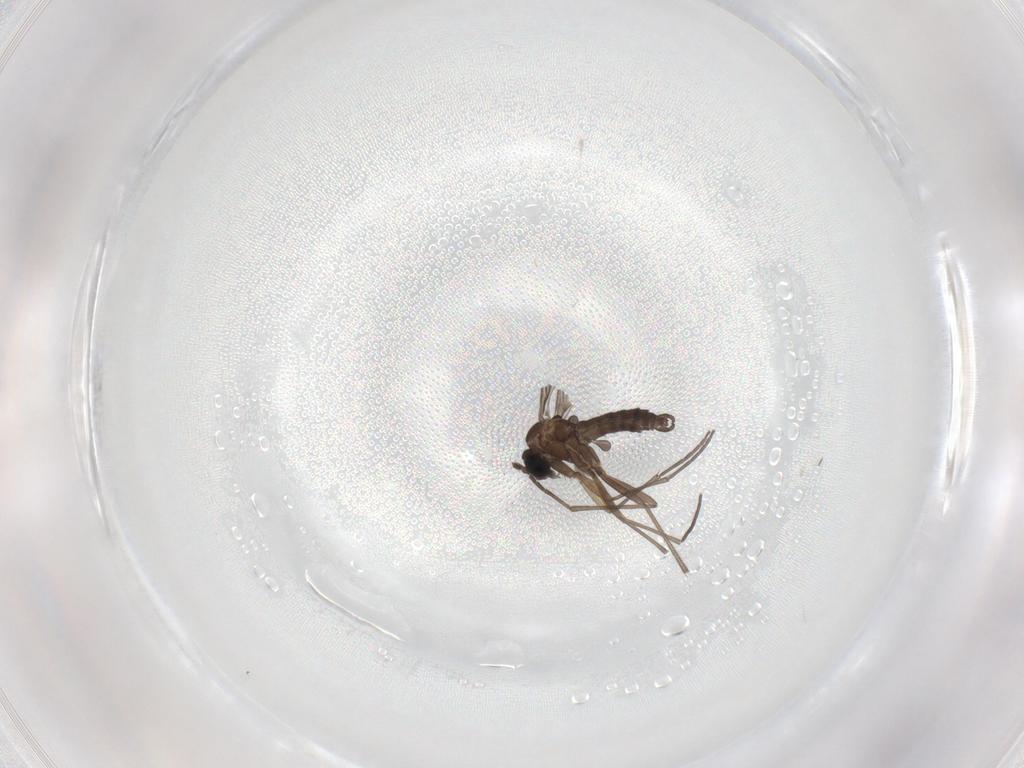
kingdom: Animalia
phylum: Arthropoda
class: Insecta
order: Diptera
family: Sciaridae
